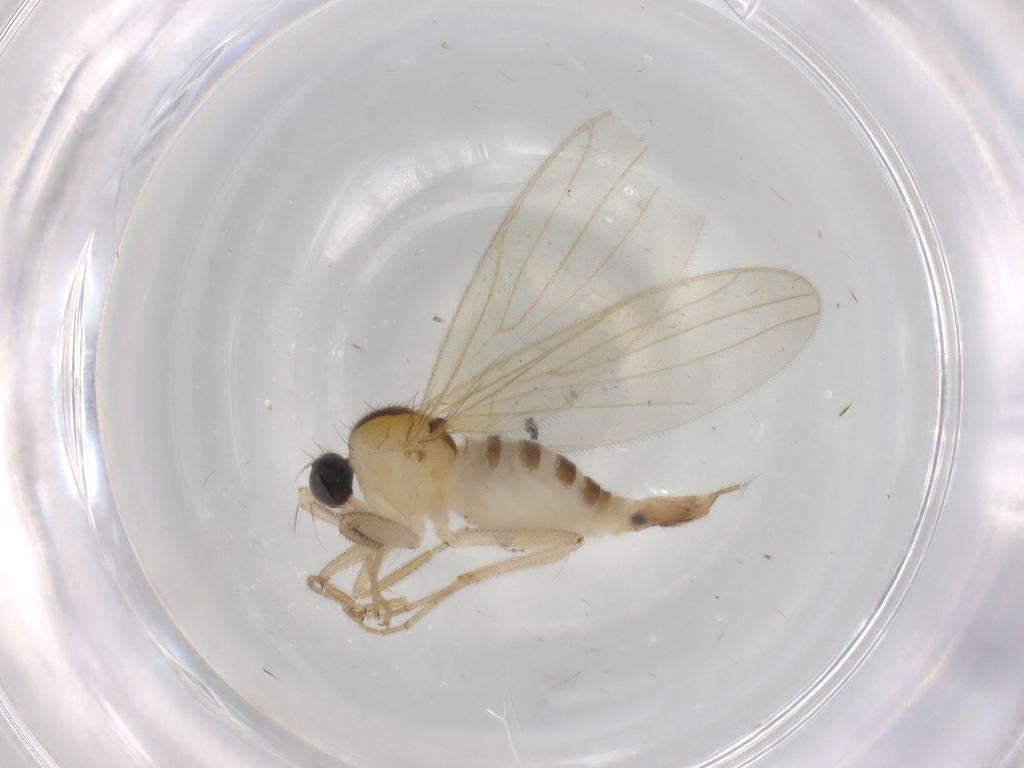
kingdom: Animalia
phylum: Arthropoda
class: Insecta
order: Diptera
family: Hybotidae
